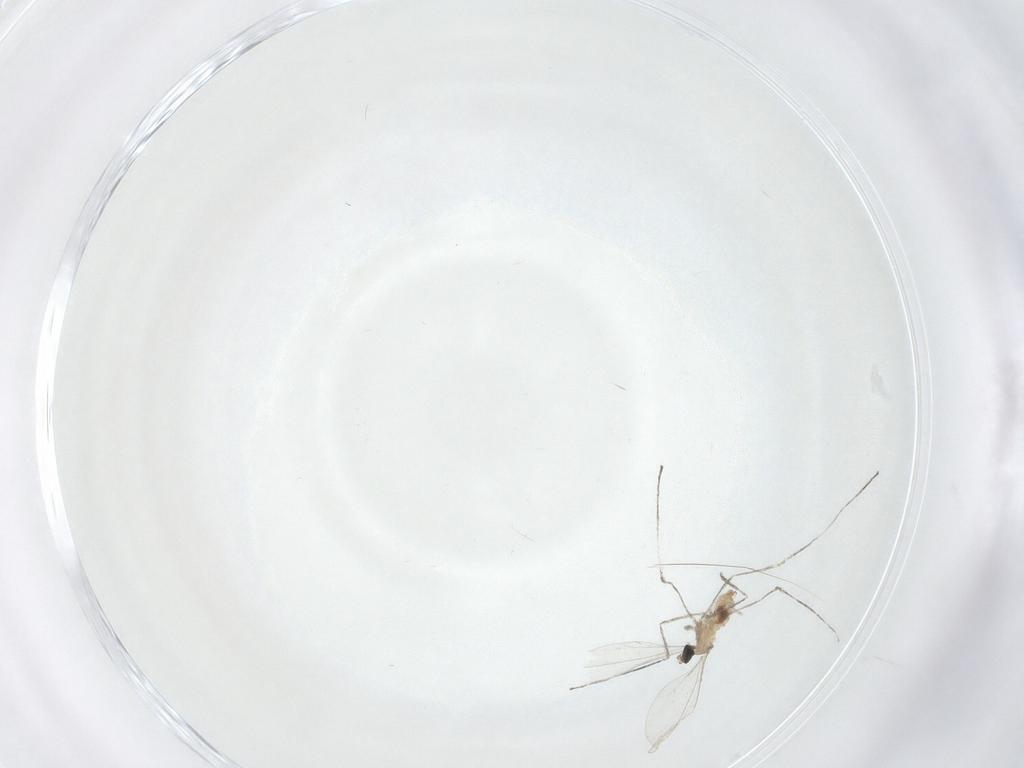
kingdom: Animalia
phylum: Arthropoda
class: Insecta
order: Diptera
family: Cecidomyiidae
